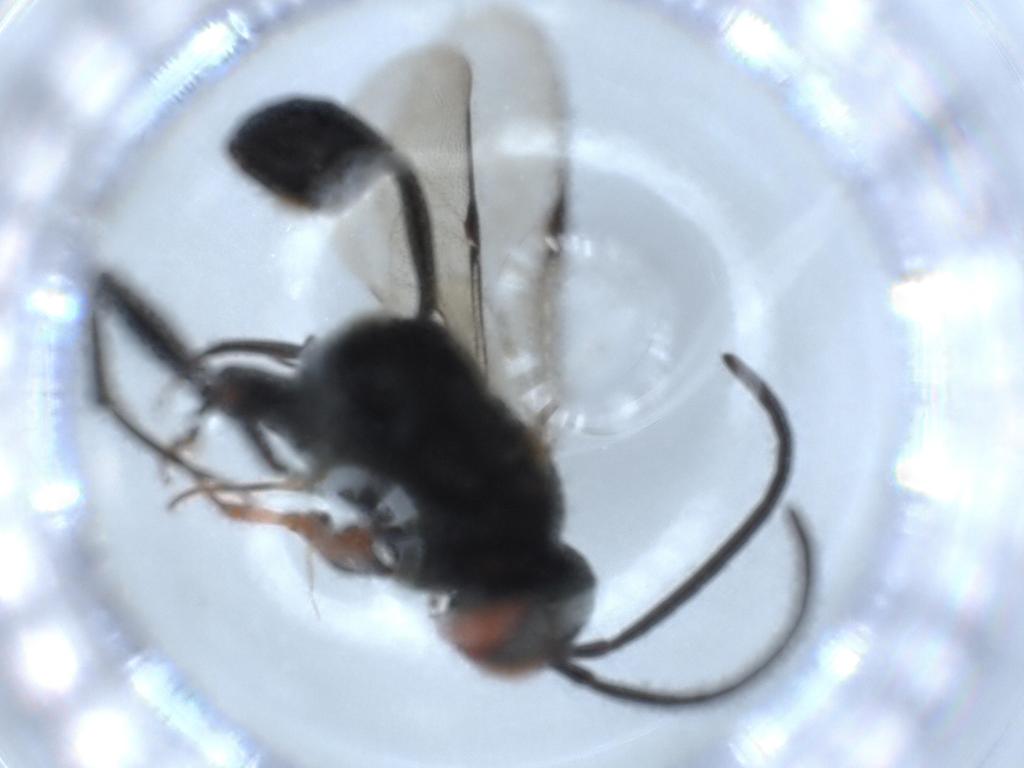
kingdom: Animalia
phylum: Arthropoda
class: Insecta
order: Hymenoptera
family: Evaniidae
